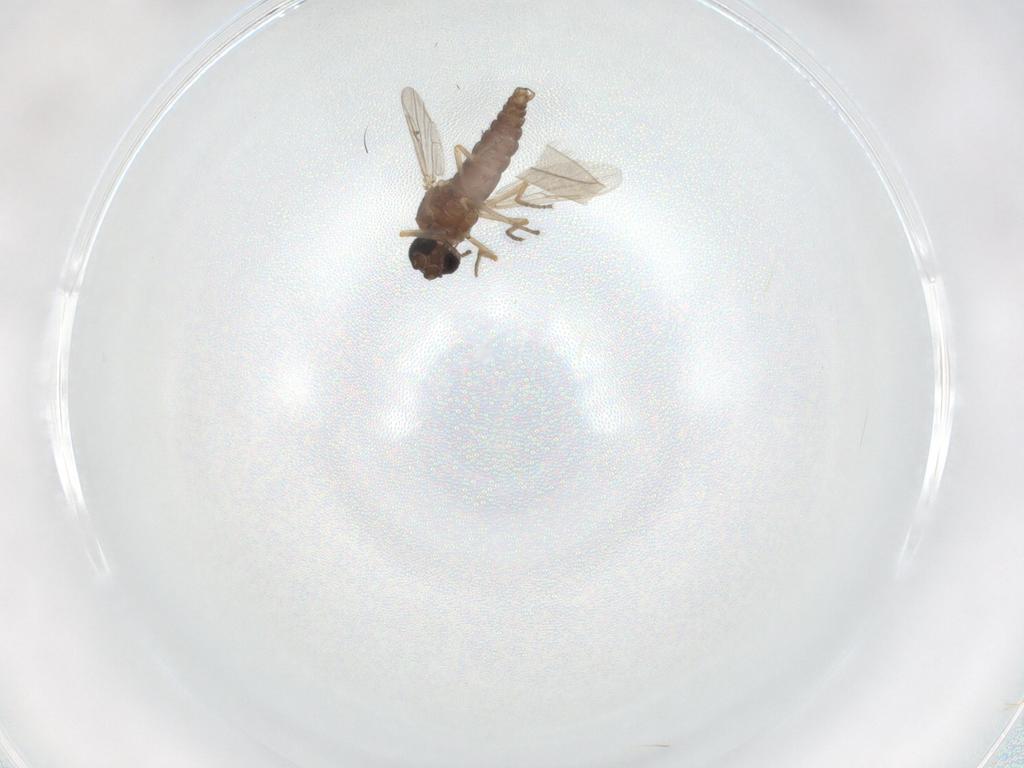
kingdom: Animalia
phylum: Arthropoda
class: Insecta
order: Diptera
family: Ceratopogonidae
